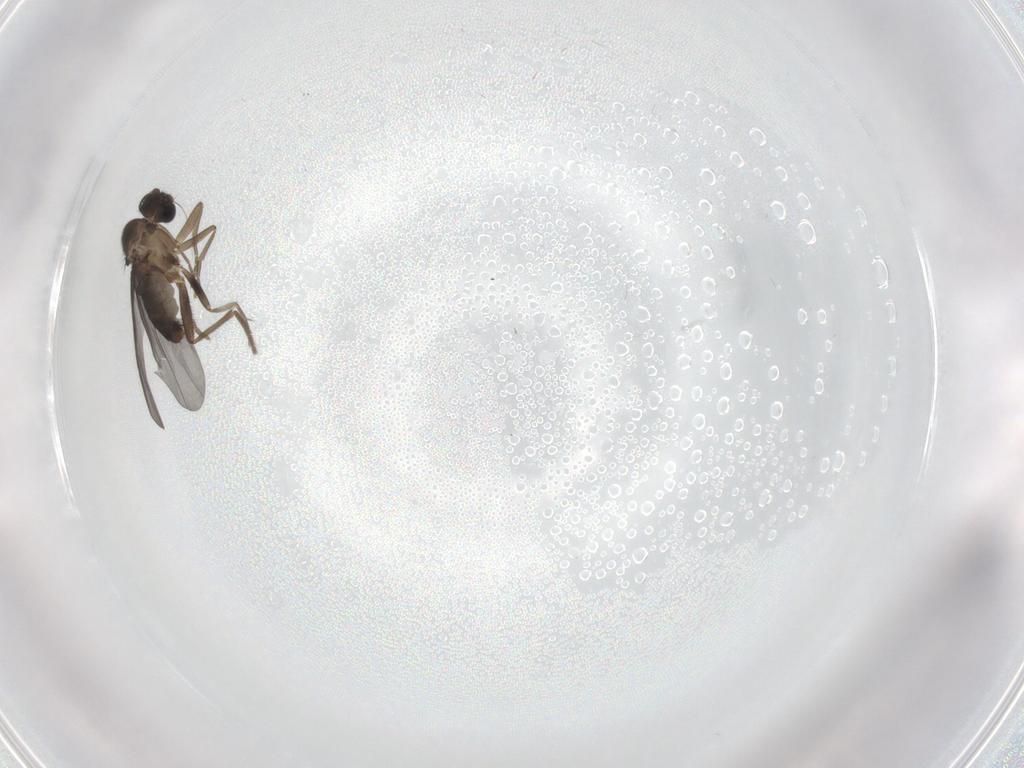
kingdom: Animalia
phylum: Arthropoda
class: Insecta
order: Diptera
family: Phoridae
